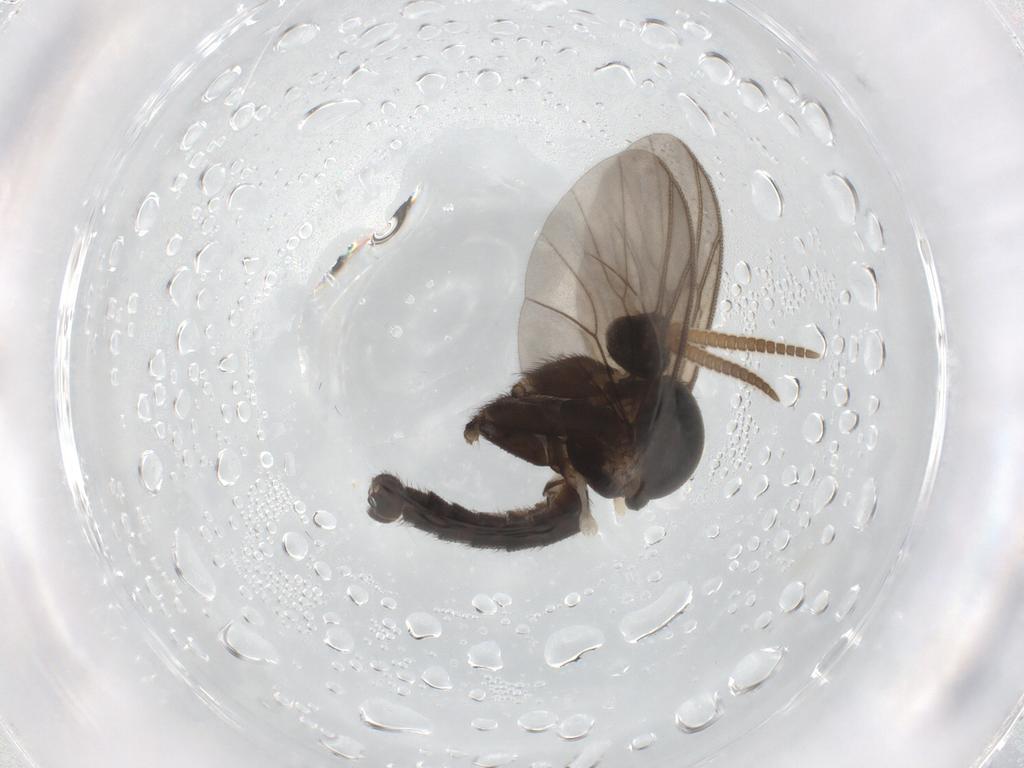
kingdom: Animalia
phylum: Arthropoda
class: Insecta
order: Diptera
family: Mycetophilidae
